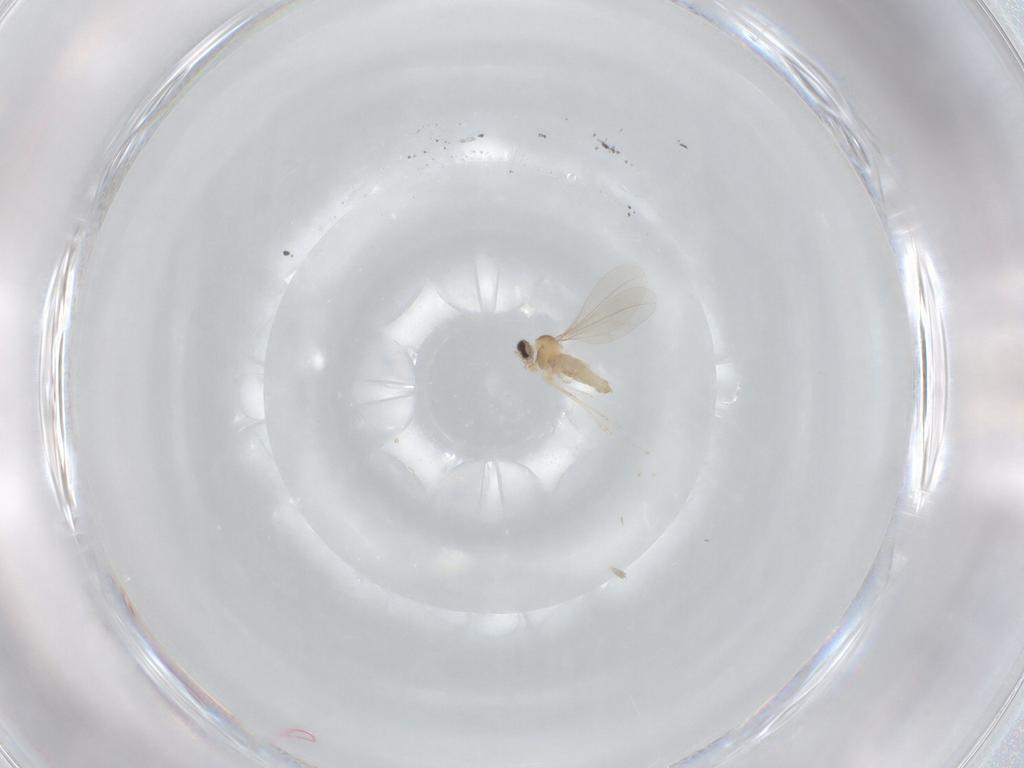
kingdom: Animalia
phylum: Arthropoda
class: Insecta
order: Diptera
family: Cecidomyiidae
